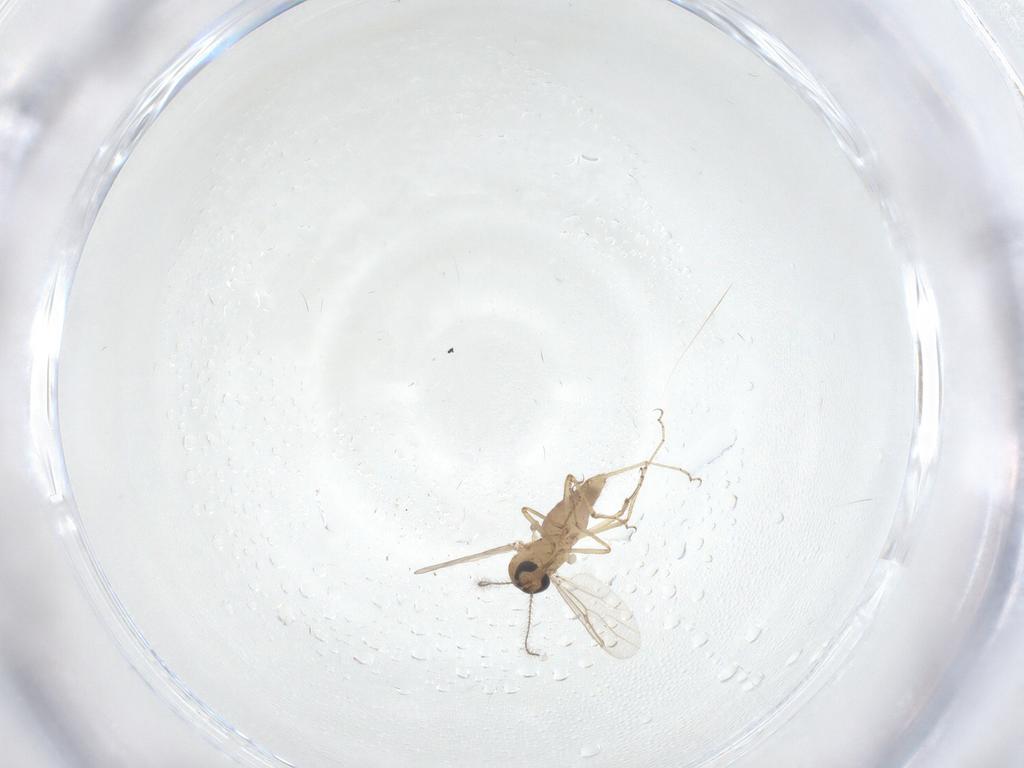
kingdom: Animalia
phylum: Arthropoda
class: Insecta
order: Diptera
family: Ceratopogonidae
